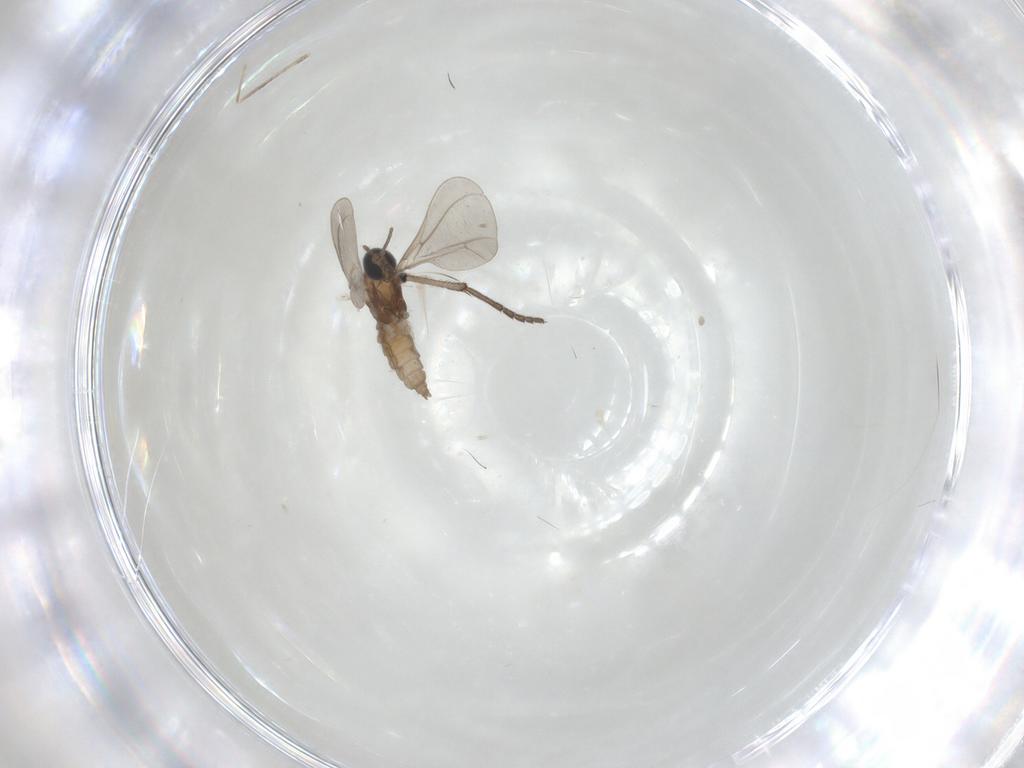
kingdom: Animalia
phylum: Arthropoda
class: Insecta
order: Diptera
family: Cecidomyiidae
